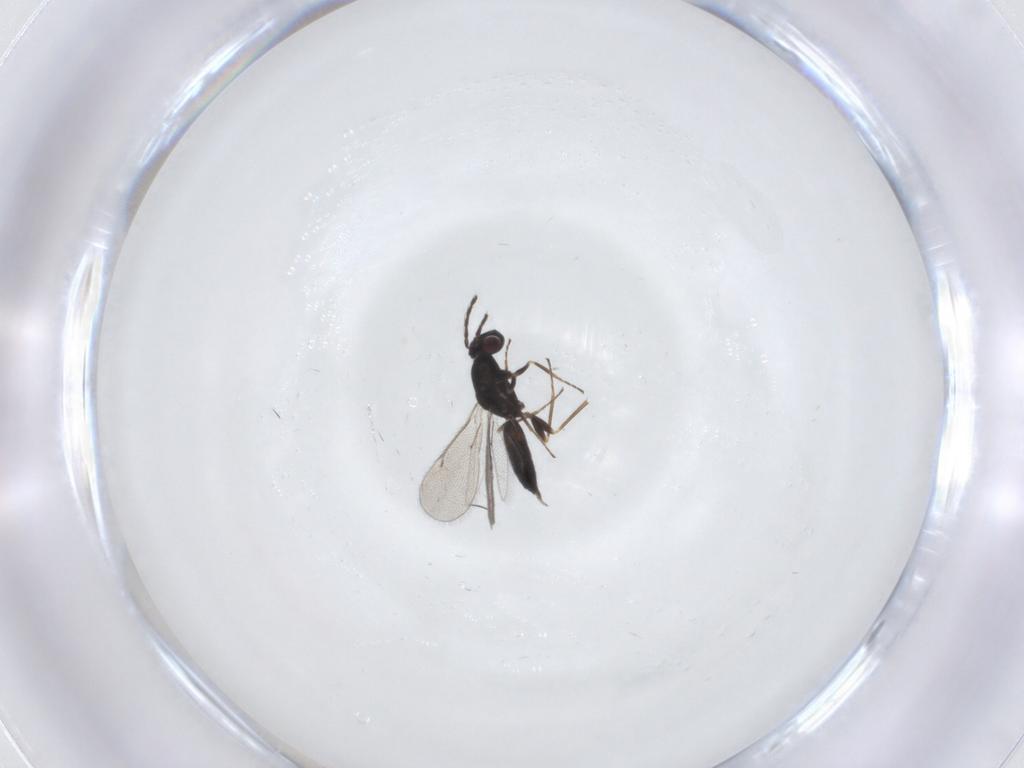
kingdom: Animalia
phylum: Arthropoda
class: Insecta
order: Hymenoptera
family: Eulophidae
